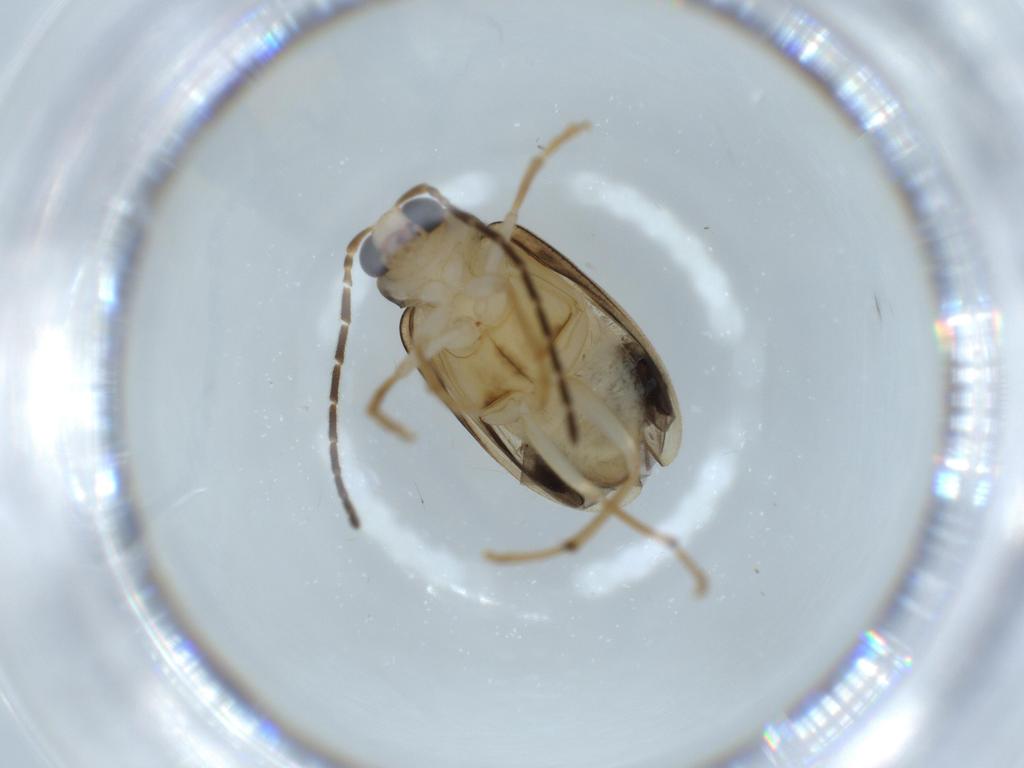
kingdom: Animalia
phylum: Arthropoda
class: Insecta
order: Coleoptera
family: Chrysomelidae
